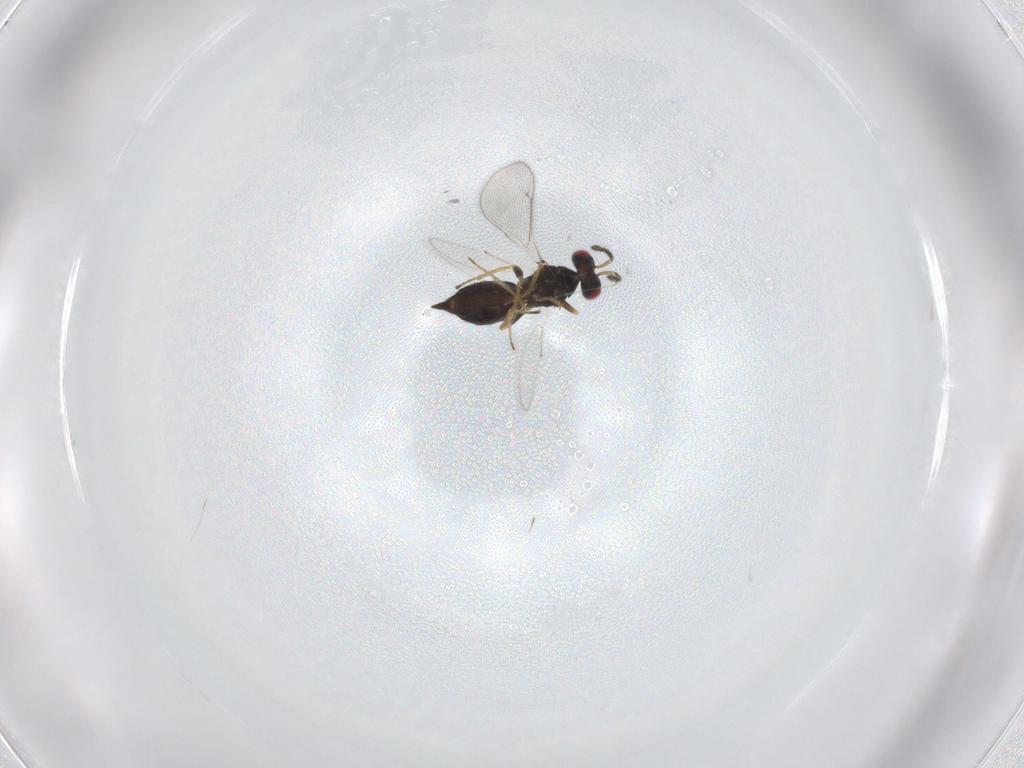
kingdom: Animalia
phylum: Arthropoda
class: Insecta
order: Hymenoptera
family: Eulophidae
